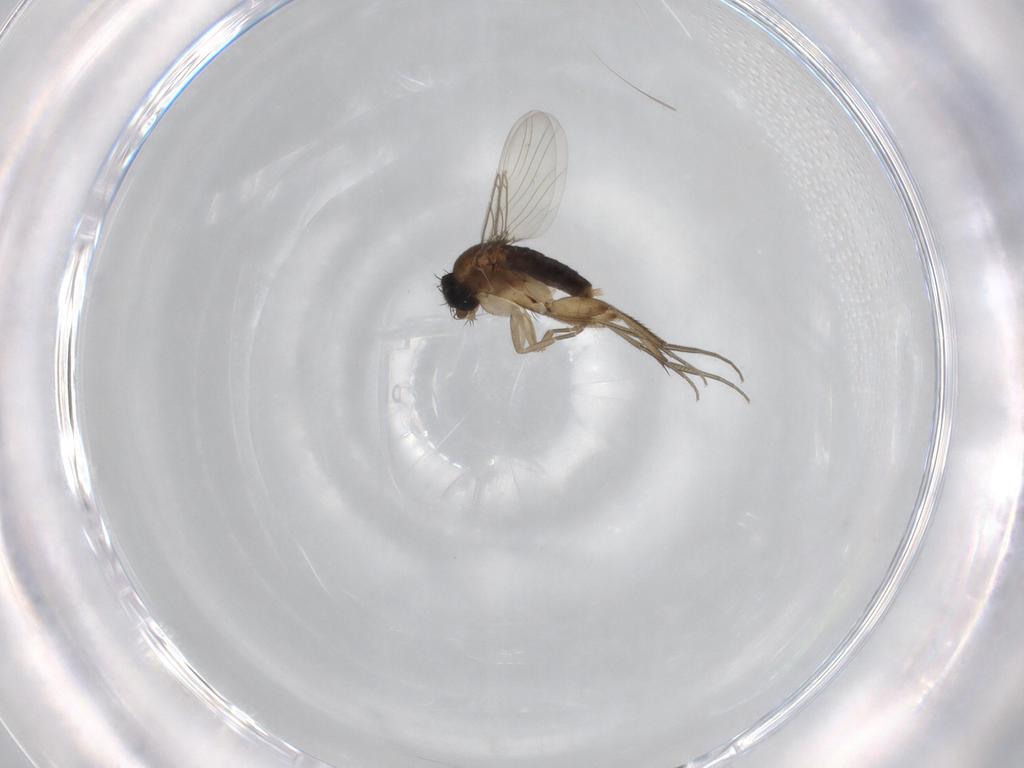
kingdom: Animalia
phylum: Arthropoda
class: Insecta
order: Diptera
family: Phoridae
